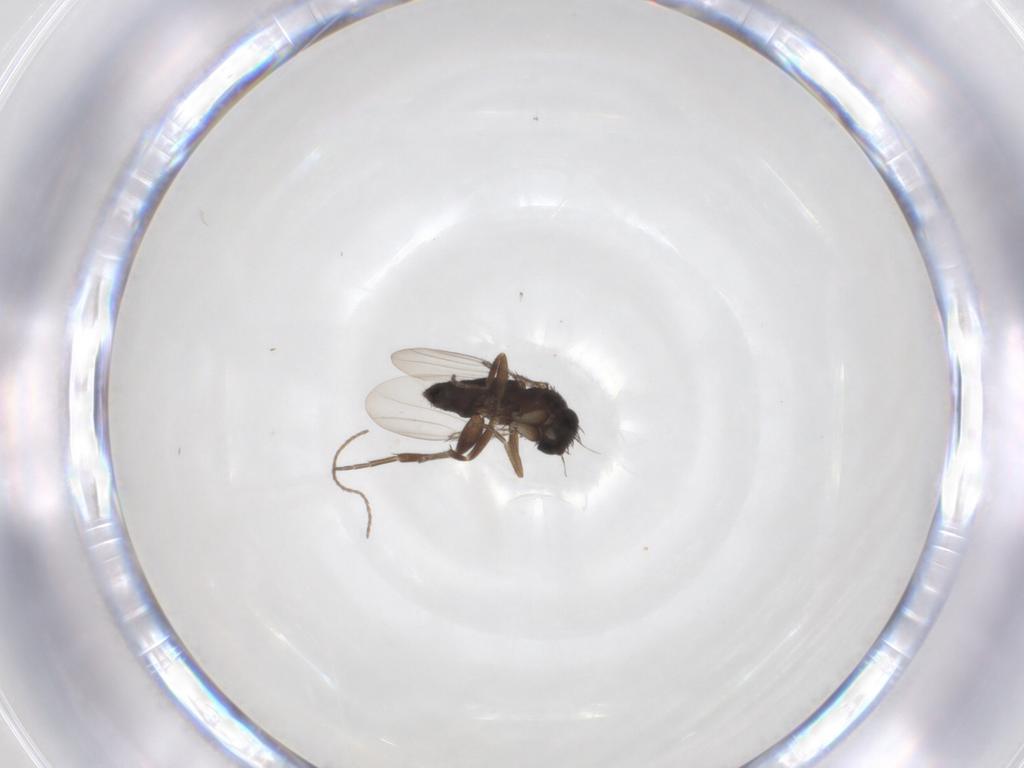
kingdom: Animalia
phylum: Arthropoda
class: Insecta
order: Diptera
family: Phoridae
